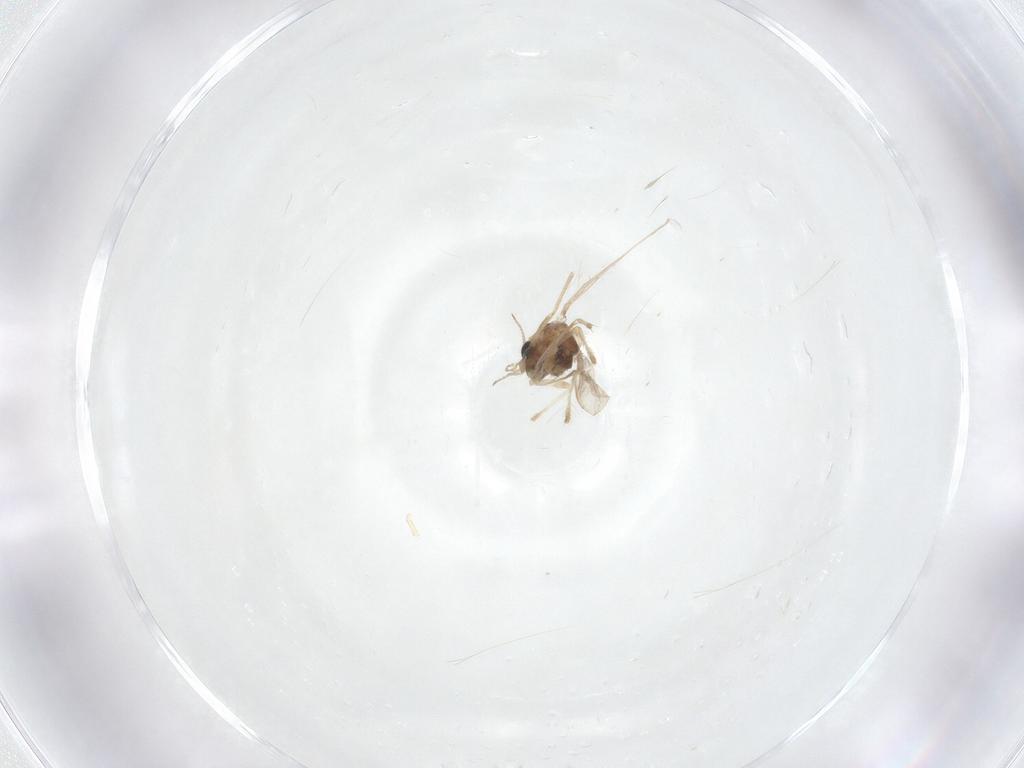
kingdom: Animalia
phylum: Arthropoda
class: Insecta
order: Diptera
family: Chironomidae
